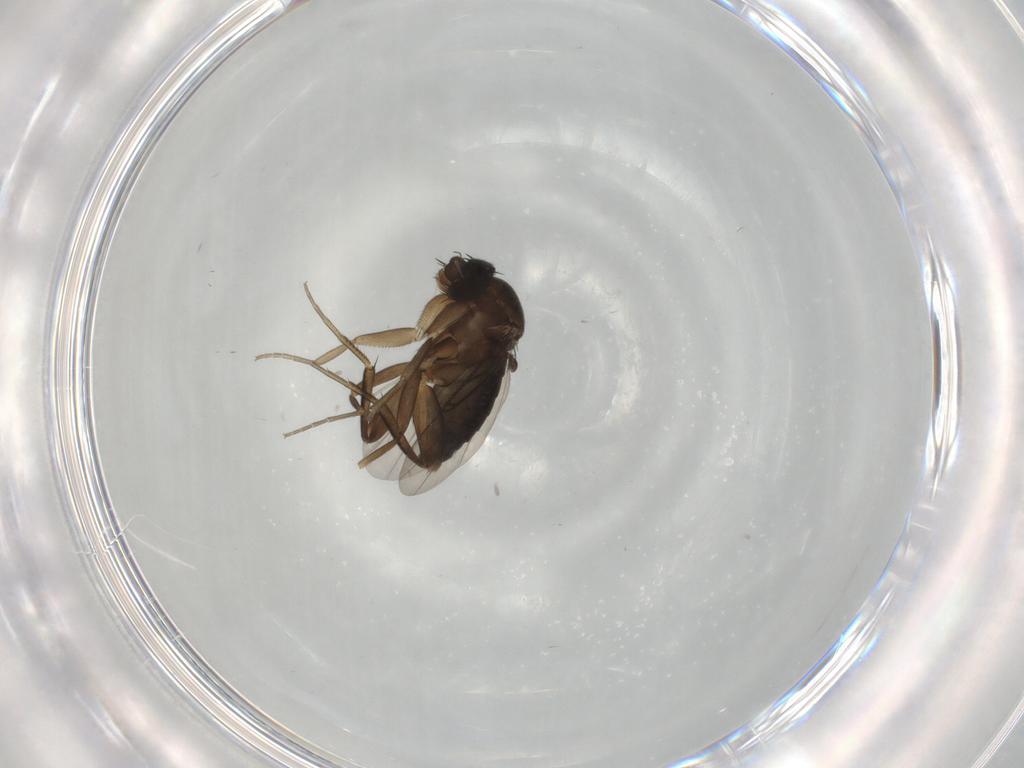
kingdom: Animalia
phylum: Arthropoda
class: Insecta
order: Diptera
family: Phoridae
